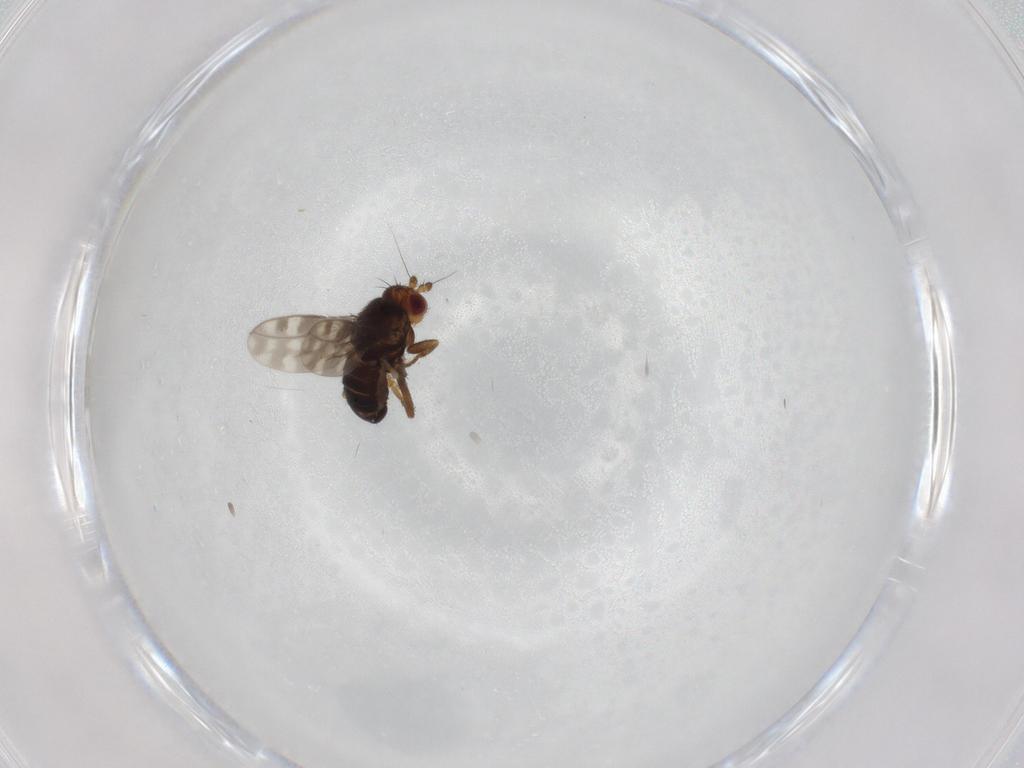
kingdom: Animalia
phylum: Arthropoda
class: Insecta
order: Diptera
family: Sphaeroceridae
